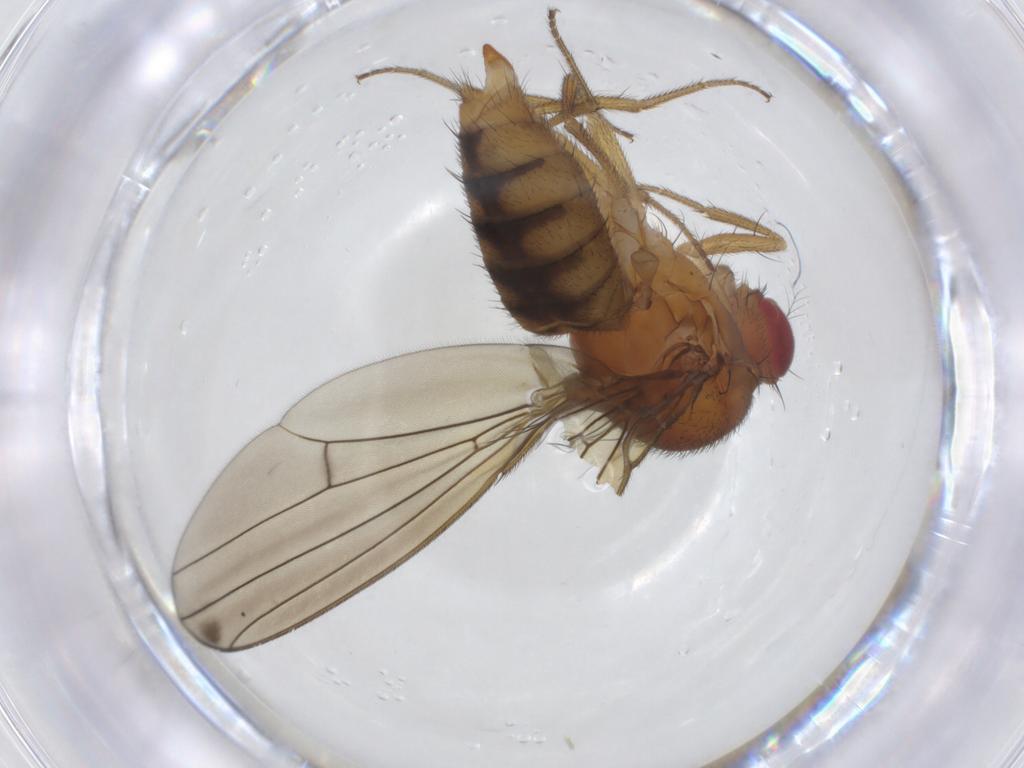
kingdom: Animalia
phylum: Arthropoda
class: Insecta
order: Diptera
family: Drosophilidae
